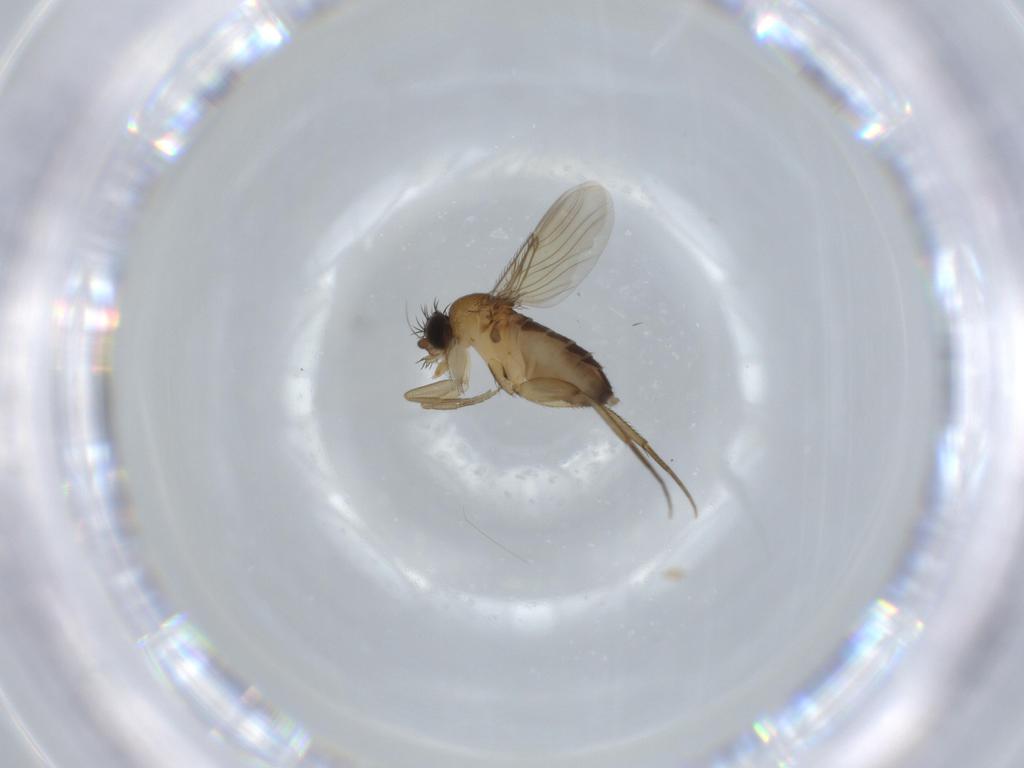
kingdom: Animalia
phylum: Arthropoda
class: Insecta
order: Diptera
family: Phoridae
